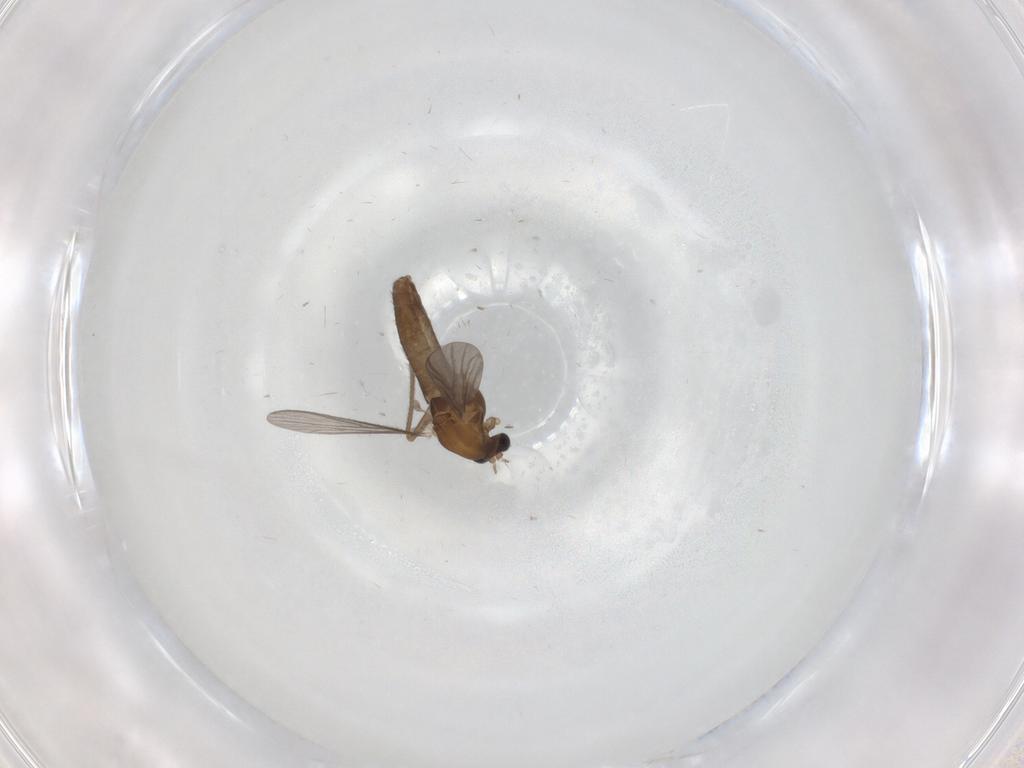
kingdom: Animalia
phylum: Arthropoda
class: Insecta
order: Diptera
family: Chironomidae
